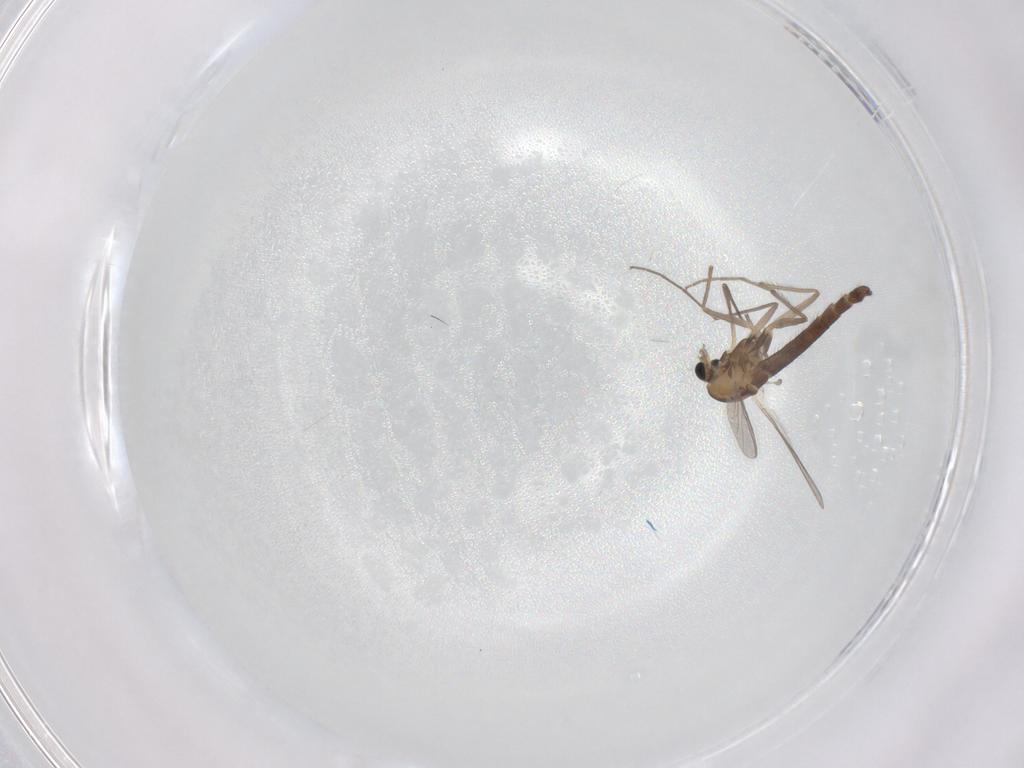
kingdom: Animalia
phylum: Arthropoda
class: Insecta
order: Diptera
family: Chironomidae
